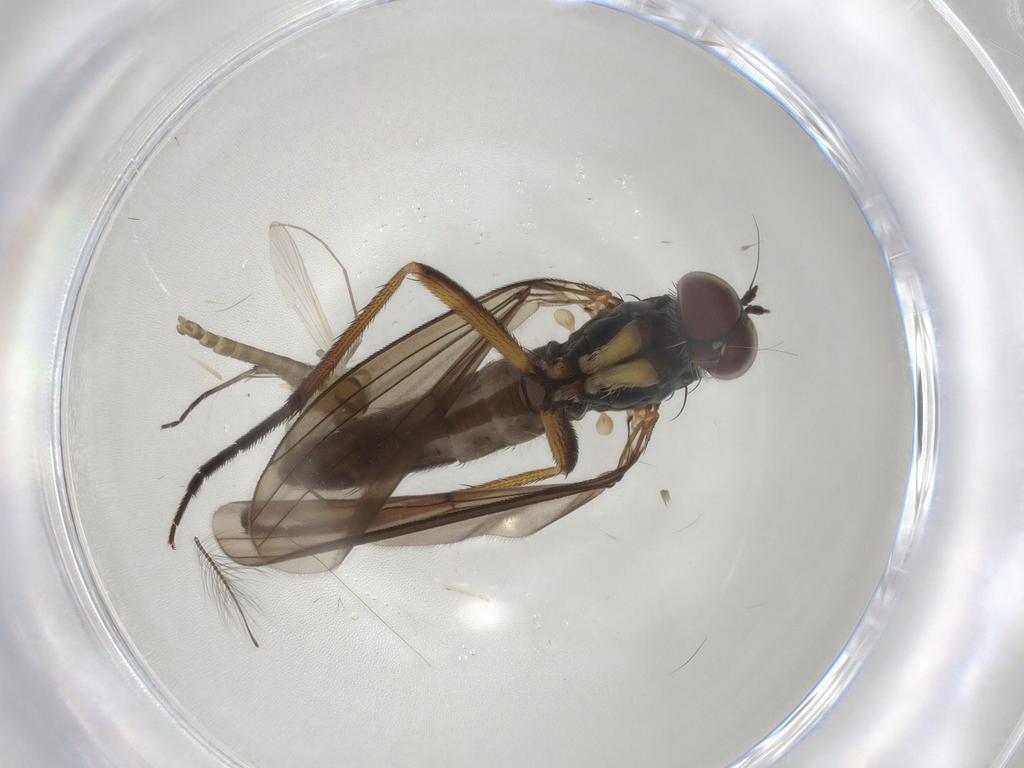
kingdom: Animalia
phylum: Arthropoda
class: Insecta
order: Diptera
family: Chironomidae
